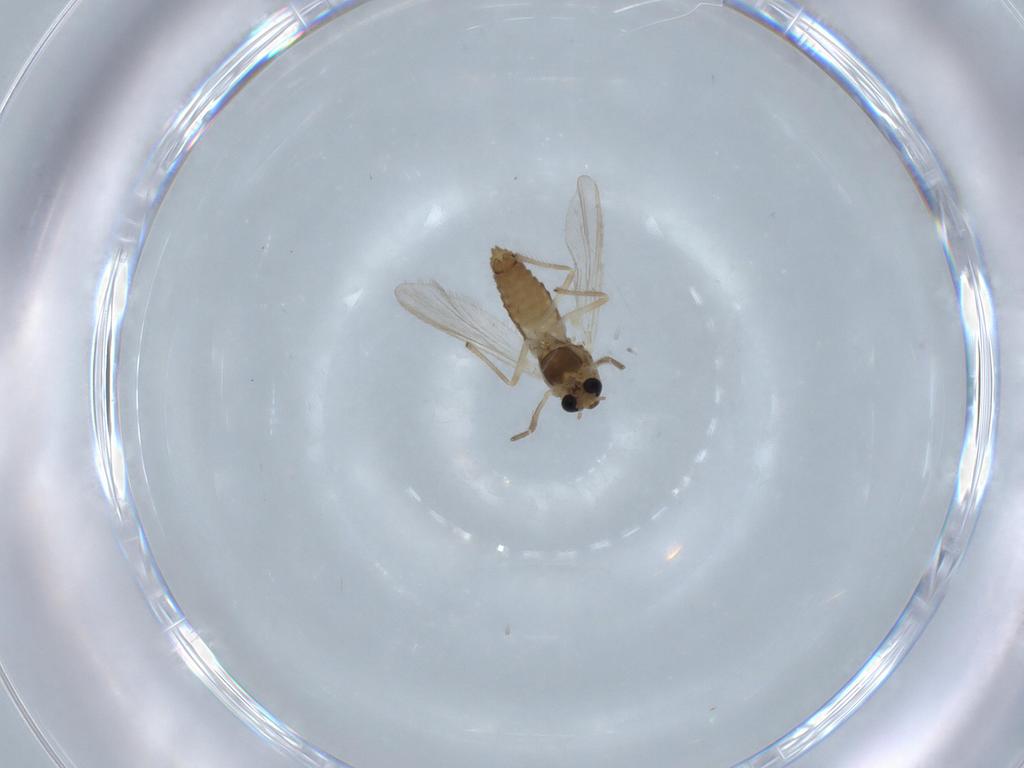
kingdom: Animalia
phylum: Arthropoda
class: Insecta
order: Diptera
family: Chironomidae
